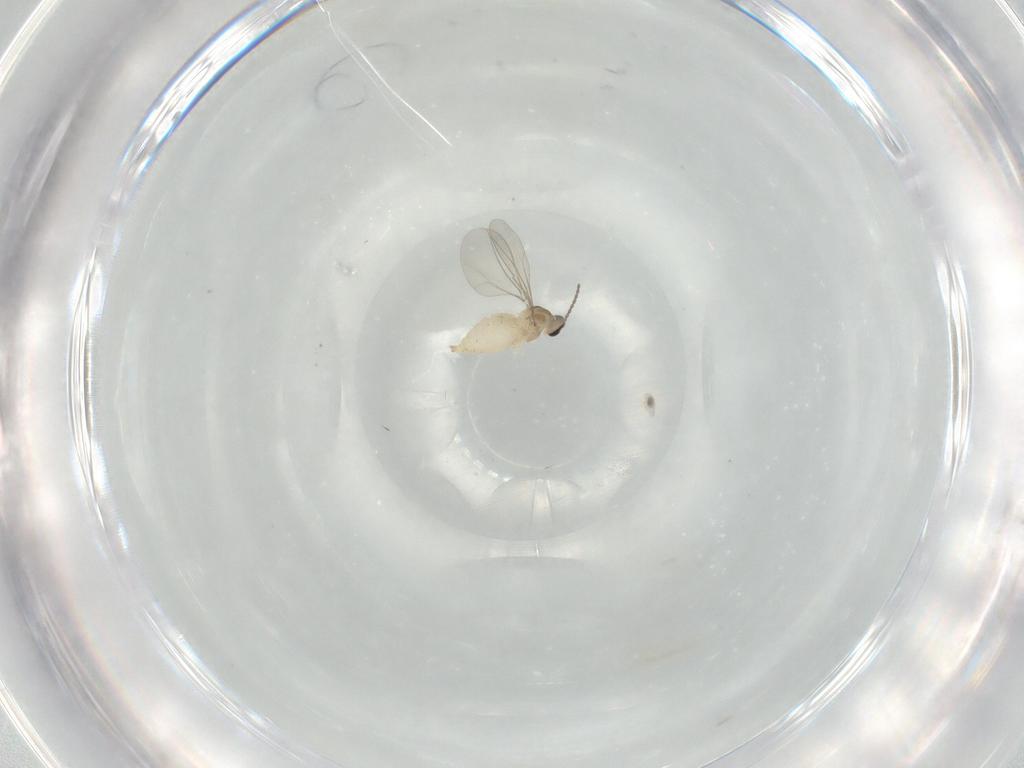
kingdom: Animalia
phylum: Arthropoda
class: Insecta
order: Diptera
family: Cecidomyiidae
